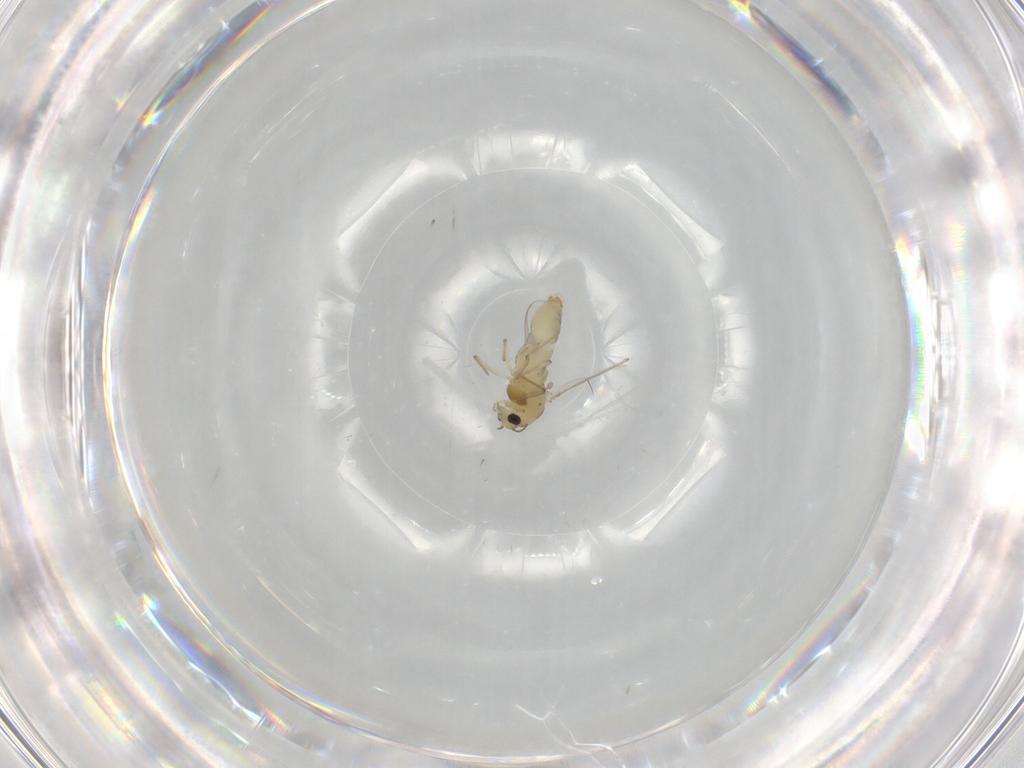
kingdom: Animalia
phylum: Arthropoda
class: Insecta
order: Diptera
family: Chironomidae
